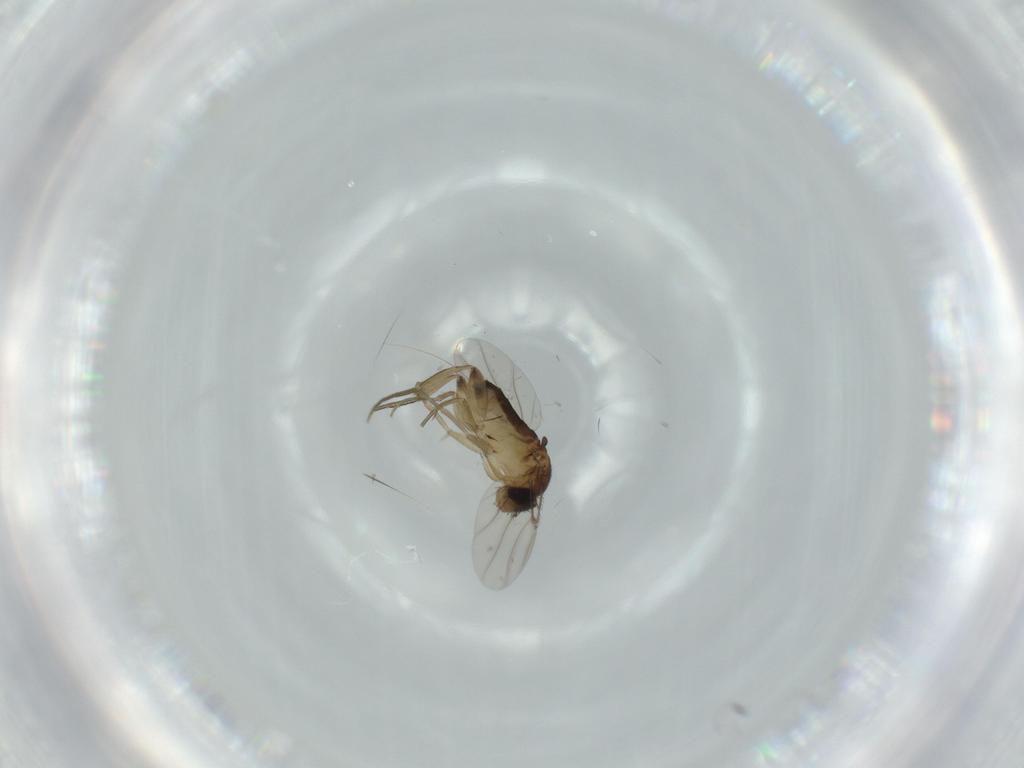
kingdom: Animalia
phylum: Arthropoda
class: Insecta
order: Diptera
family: Phoridae
